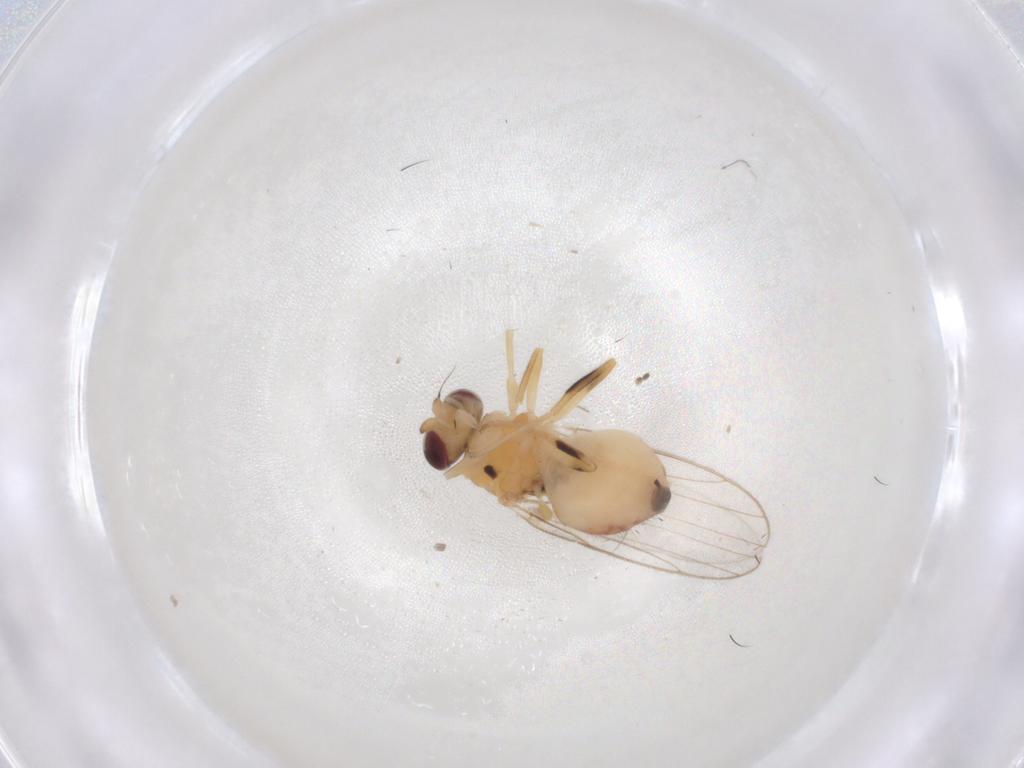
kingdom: Animalia
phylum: Arthropoda
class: Insecta
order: Diptera
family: Chloropidae
